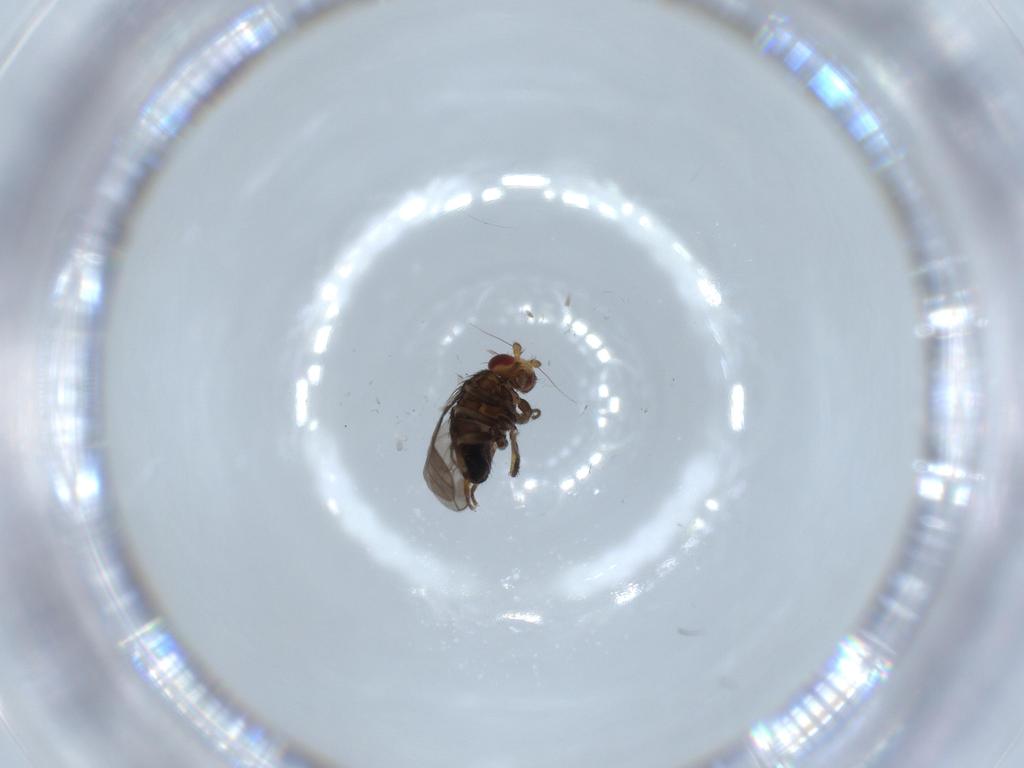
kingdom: Animalia
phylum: Arthropoda
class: Insecta
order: Diptera
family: Sphaeroceridae
